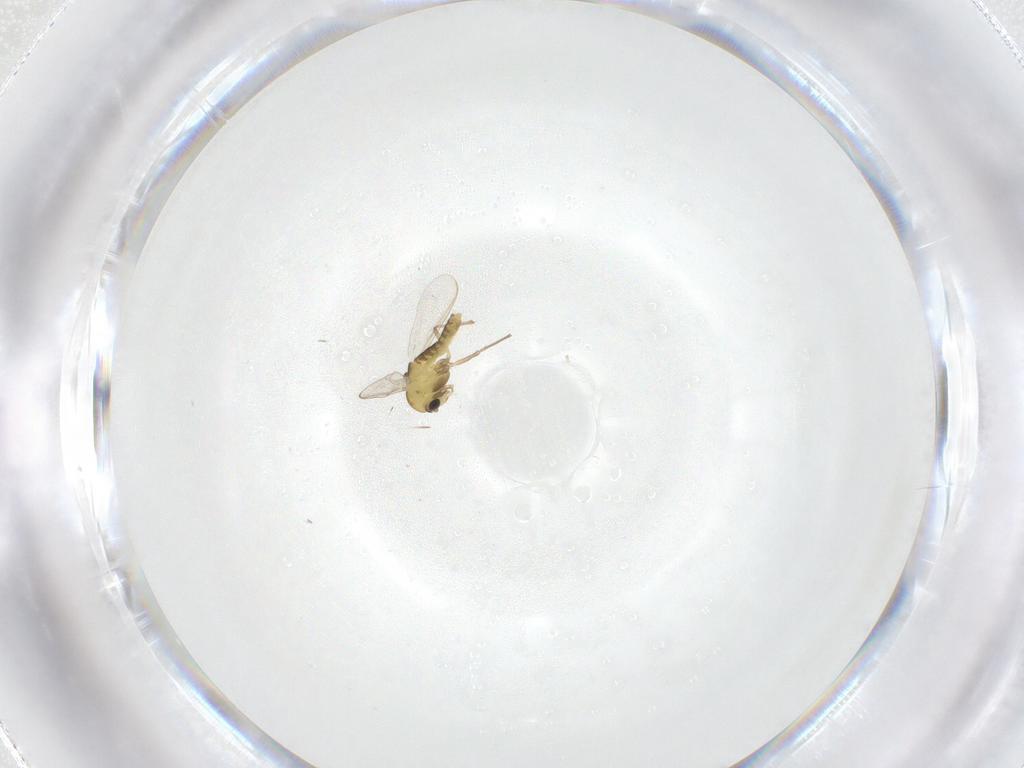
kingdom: Animalia
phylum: Arthropoda
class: Insecta
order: Diptera
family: Chironomidae
